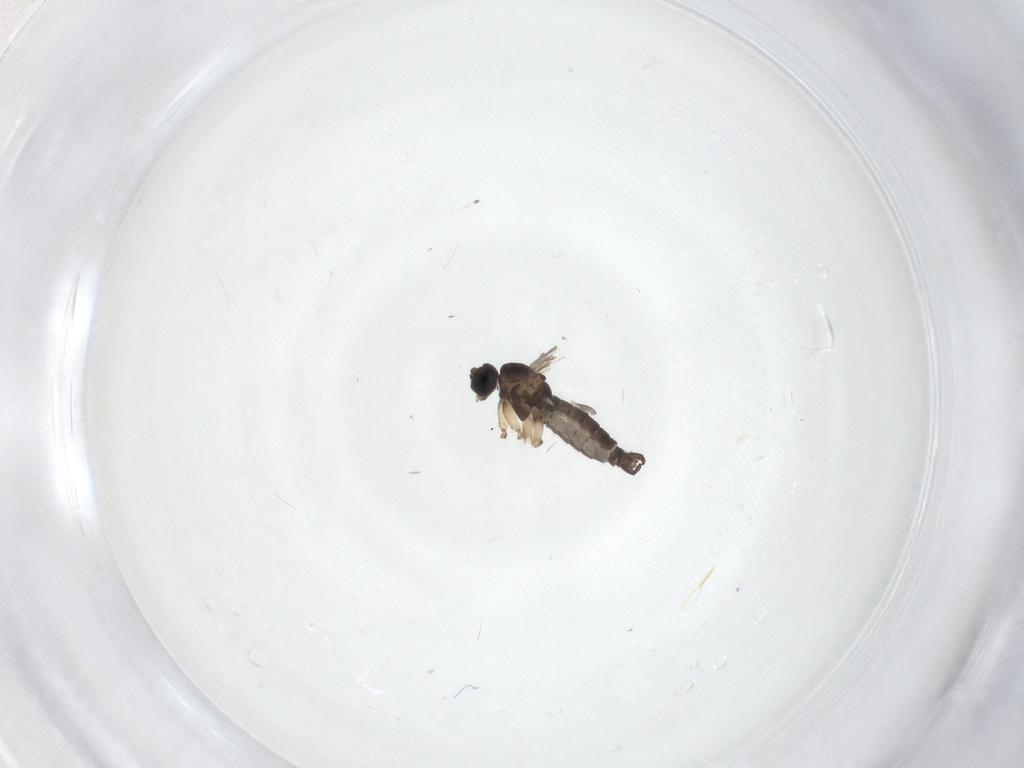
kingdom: Animalia
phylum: Arthropoda
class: Insecta
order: Diptera
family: Sciaridae
